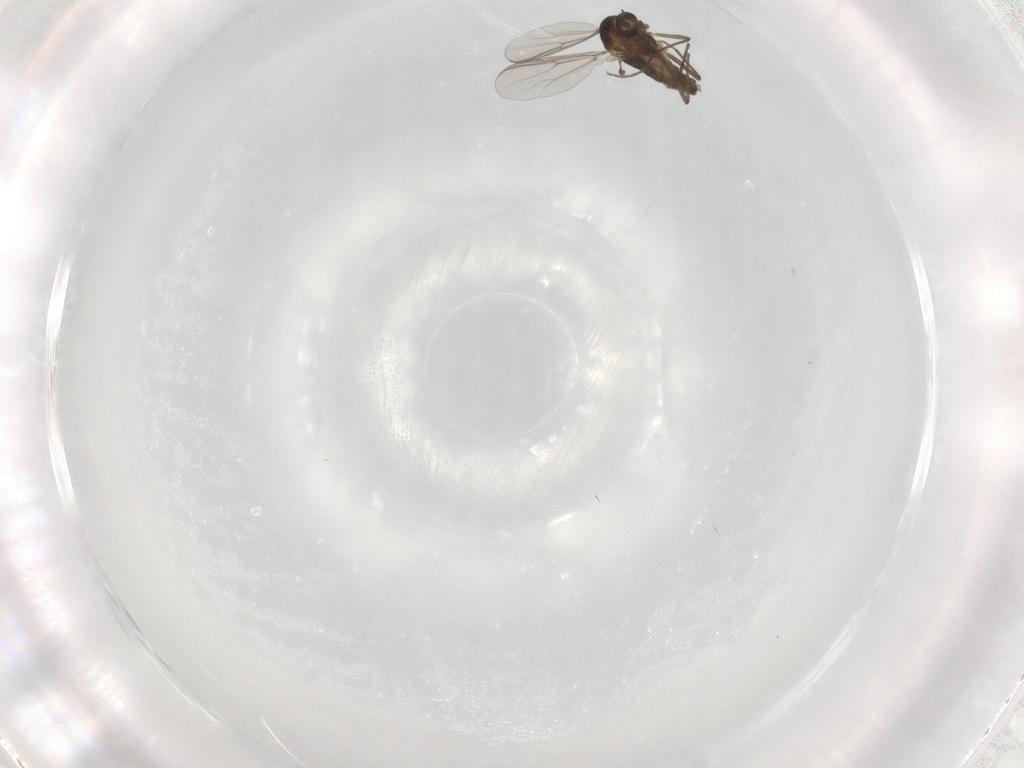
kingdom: Animalia
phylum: Arthropoda
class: Insecta
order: Diptera
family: Chironomidae
